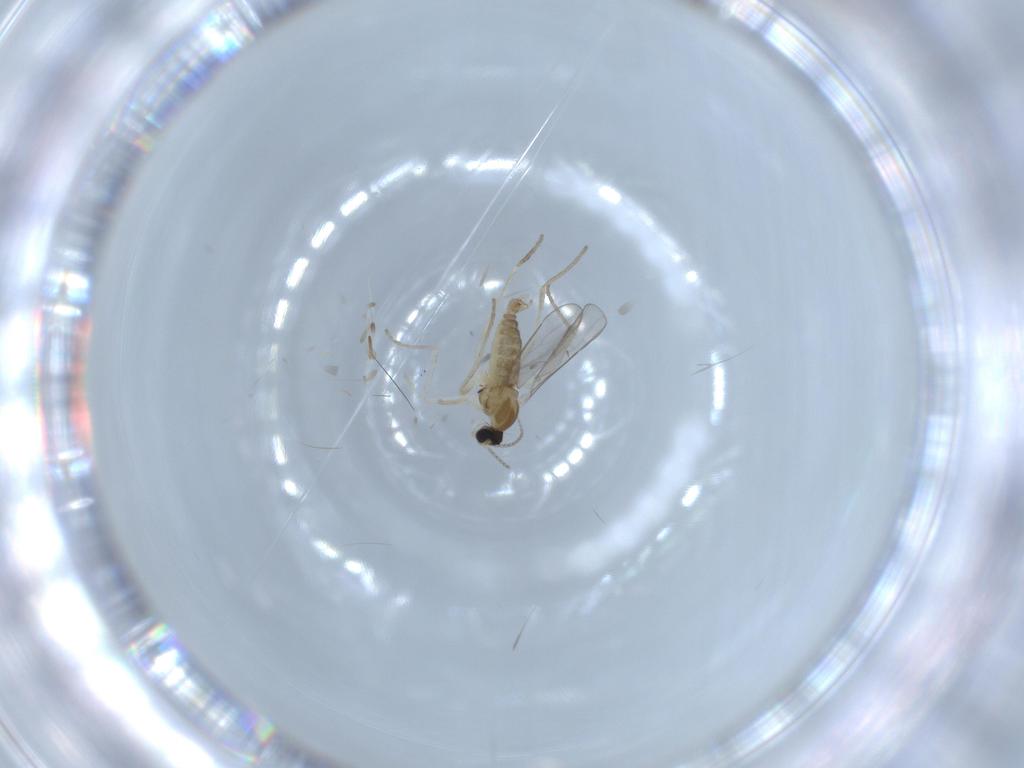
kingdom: Animalia
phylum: Arthropoda
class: Insecta
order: Diptera
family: Cecidomyiidae
